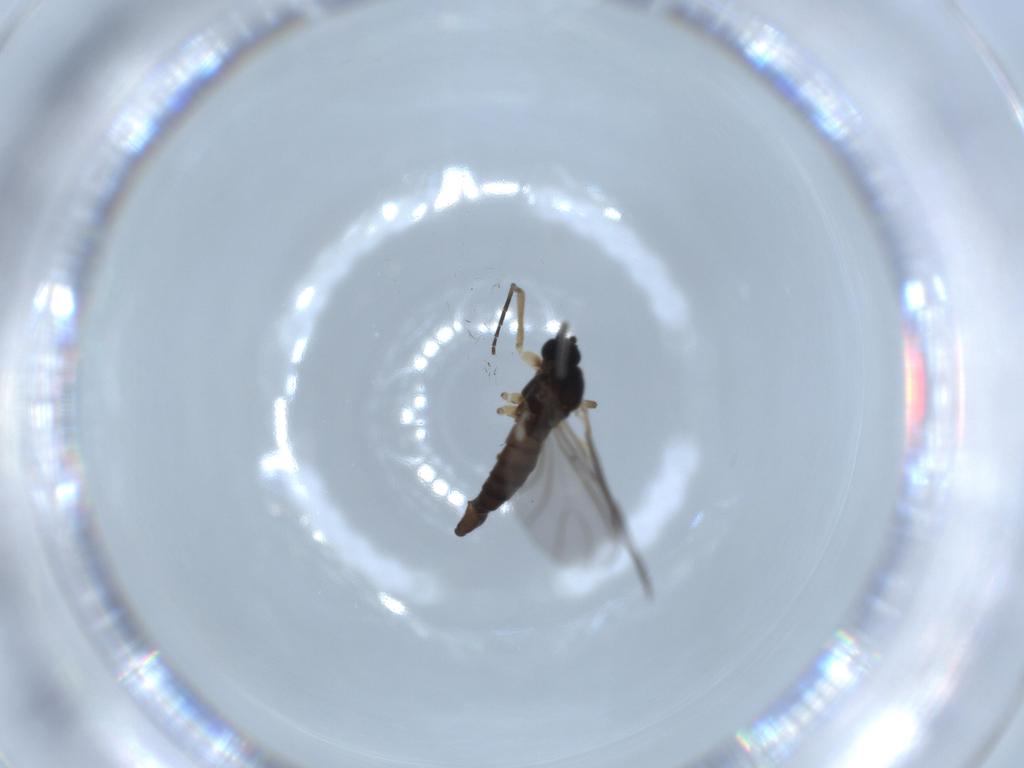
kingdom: Animalia
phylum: Arthropoda
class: Insecta
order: Diptera
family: Sciaridae
